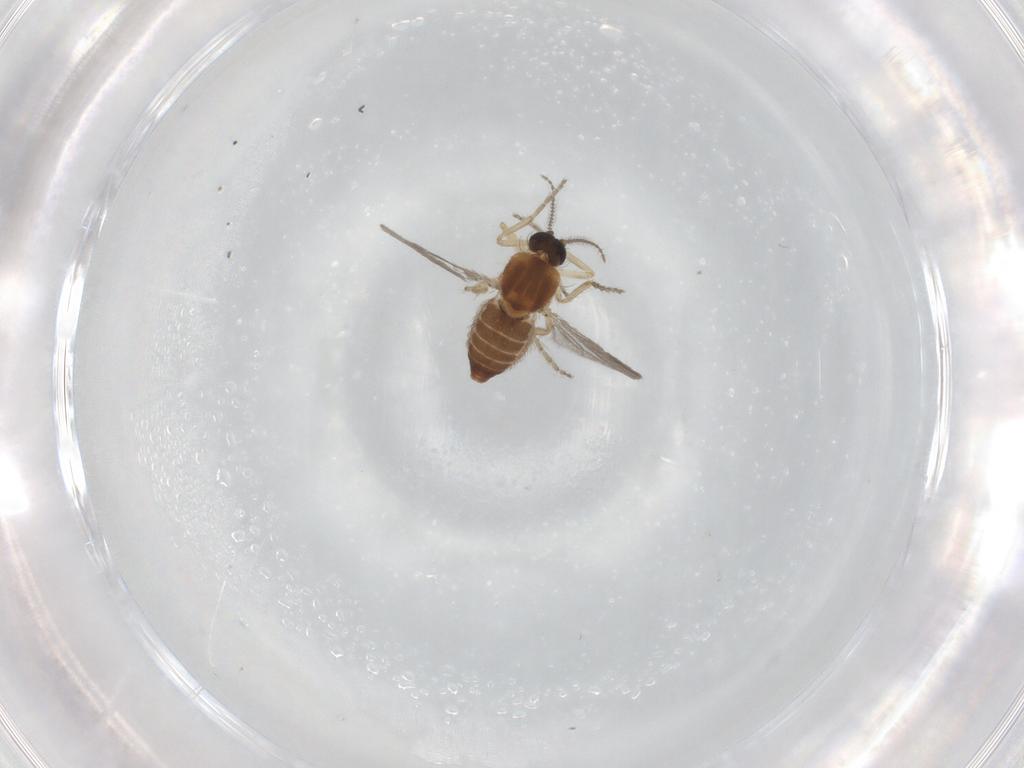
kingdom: Animalia
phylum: Arthropoda
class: Insecta
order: Diptera
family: Ceratopogonidae
